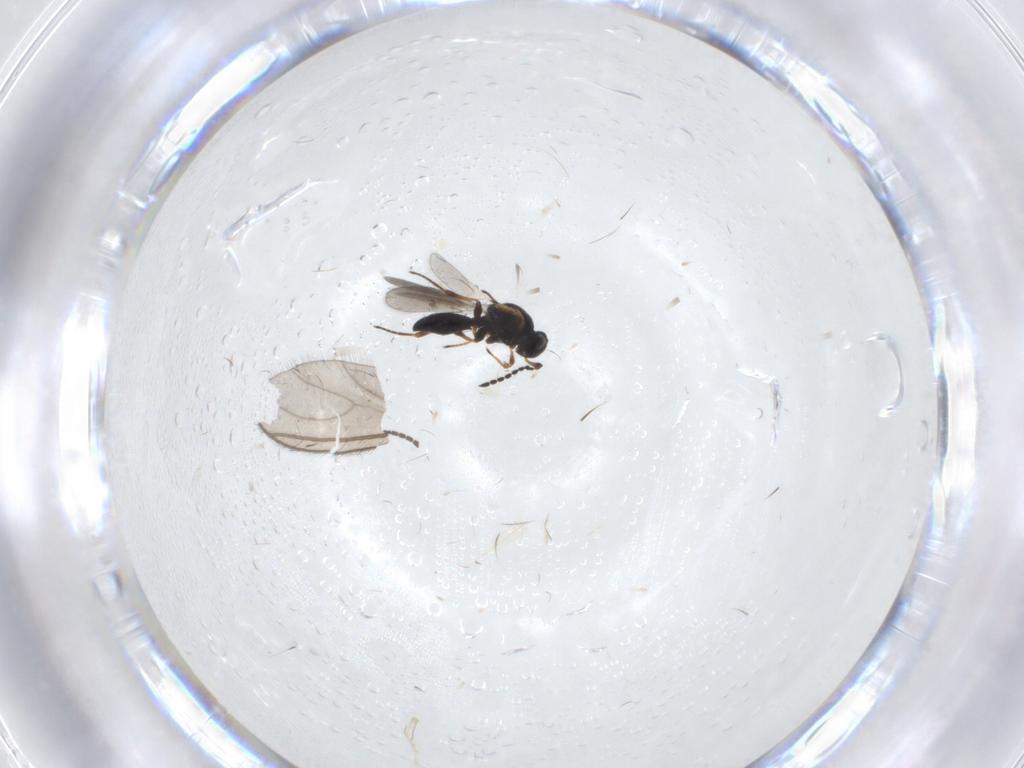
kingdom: Animalia
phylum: Arthropoda
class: Insecta
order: Hymenoptera
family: Platygastridae
